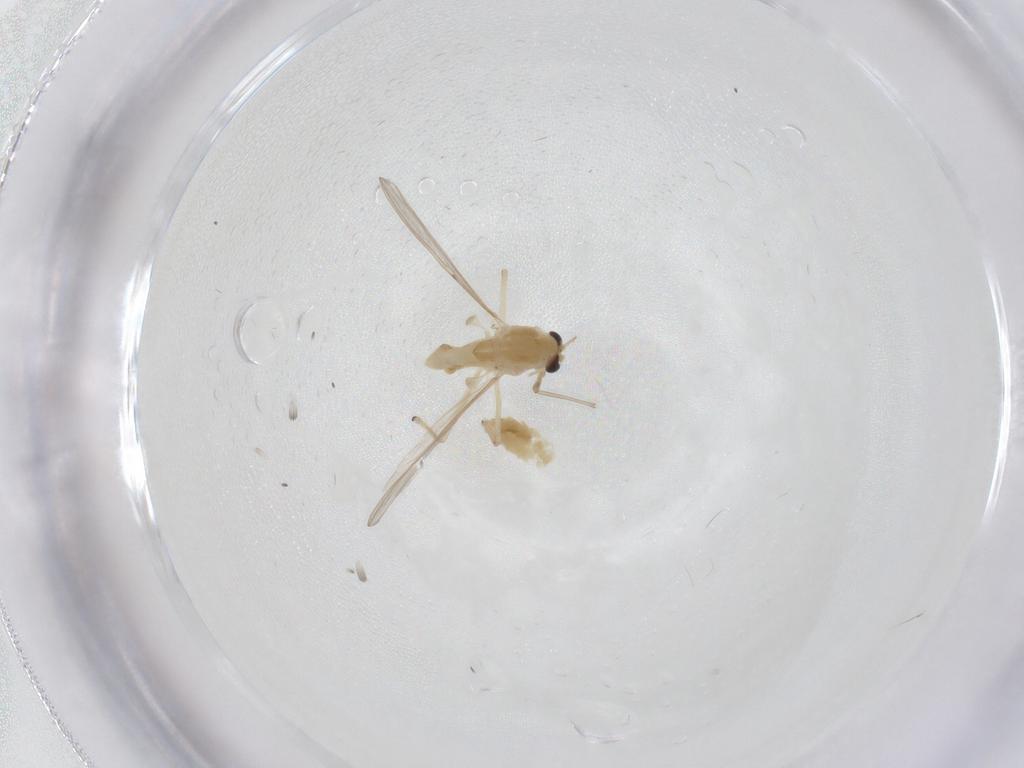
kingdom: Animalia
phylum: Arthropoda
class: Insecta
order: Diptera
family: Chironomidae
